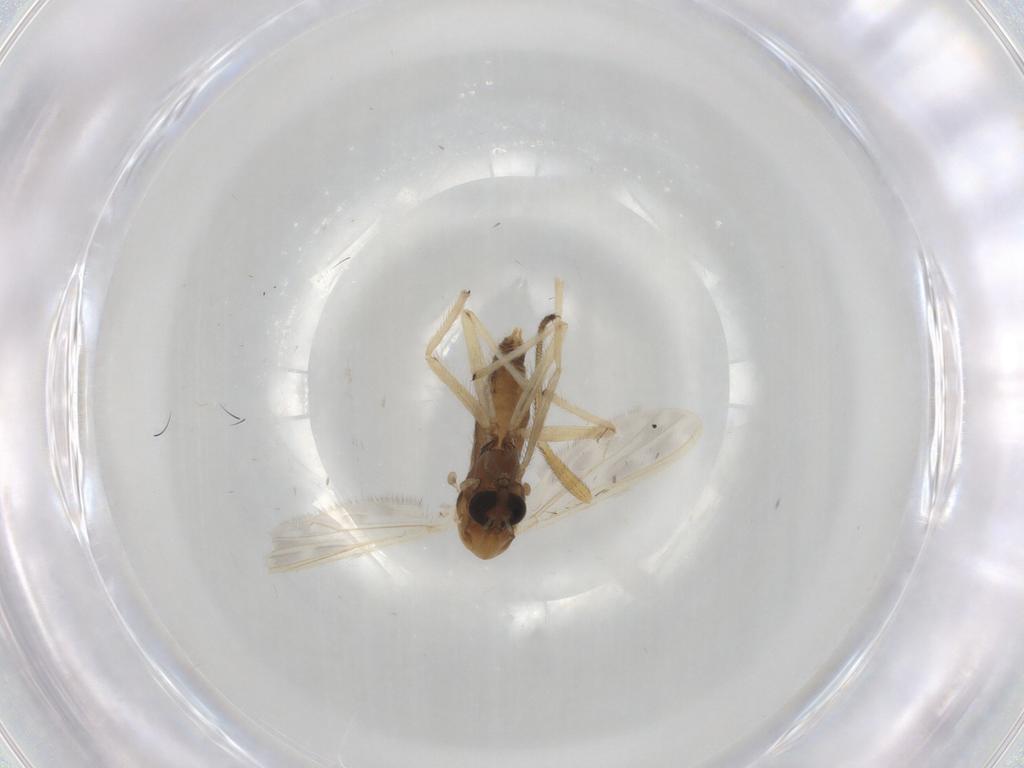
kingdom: Animalia
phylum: Arthropoda
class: Insecta
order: Diptera
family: Chironomidae
